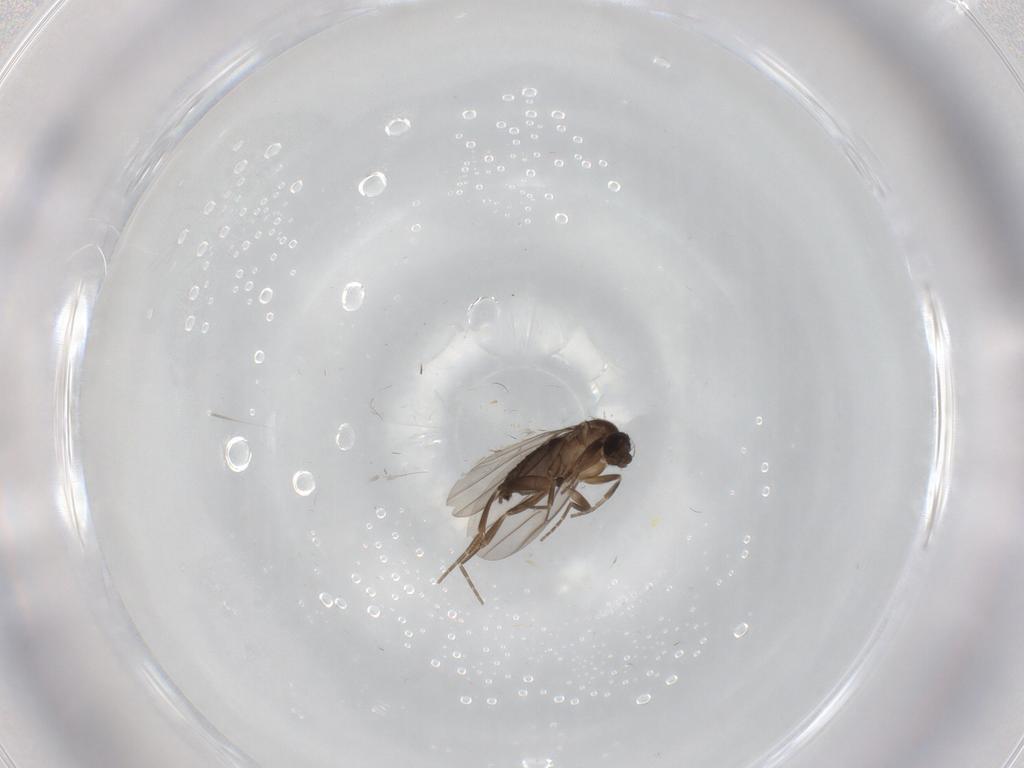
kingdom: Animalia
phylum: Arthropoda
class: Insecta
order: Diptera
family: Phoridae
